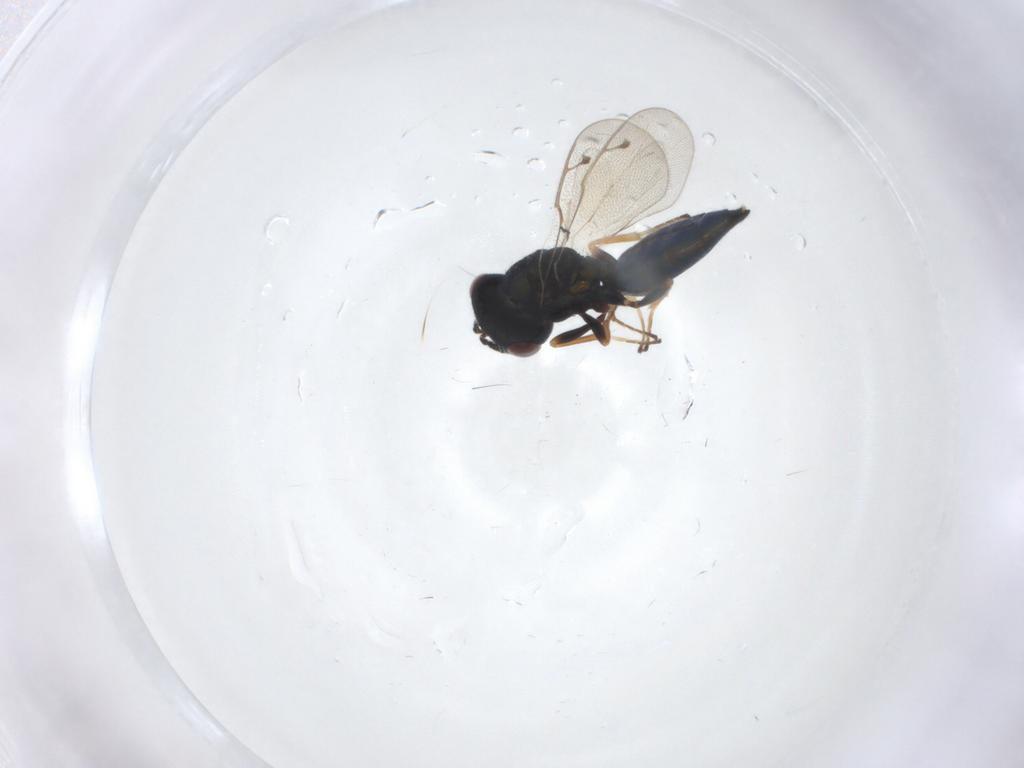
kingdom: Animalia
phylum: Arthropoda
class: Insecta
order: Hymenoptera
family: Pteromalidae
